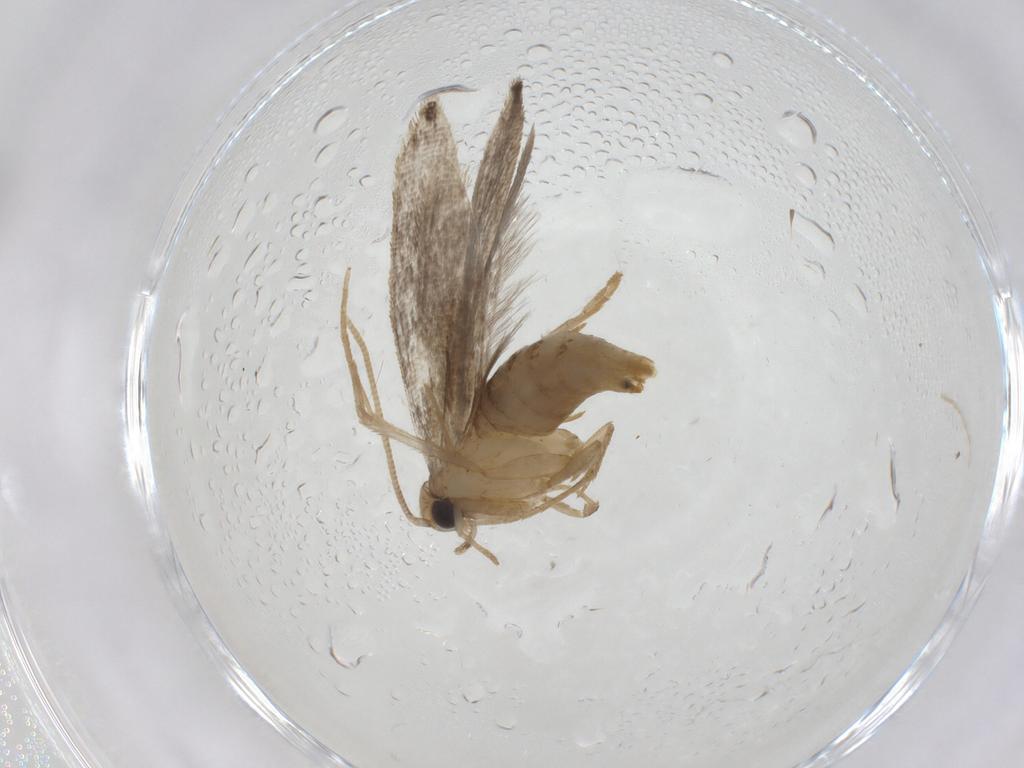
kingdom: Animalia
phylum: Arthropoda
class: Insecta
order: Lepidoptera
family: Tineidae
